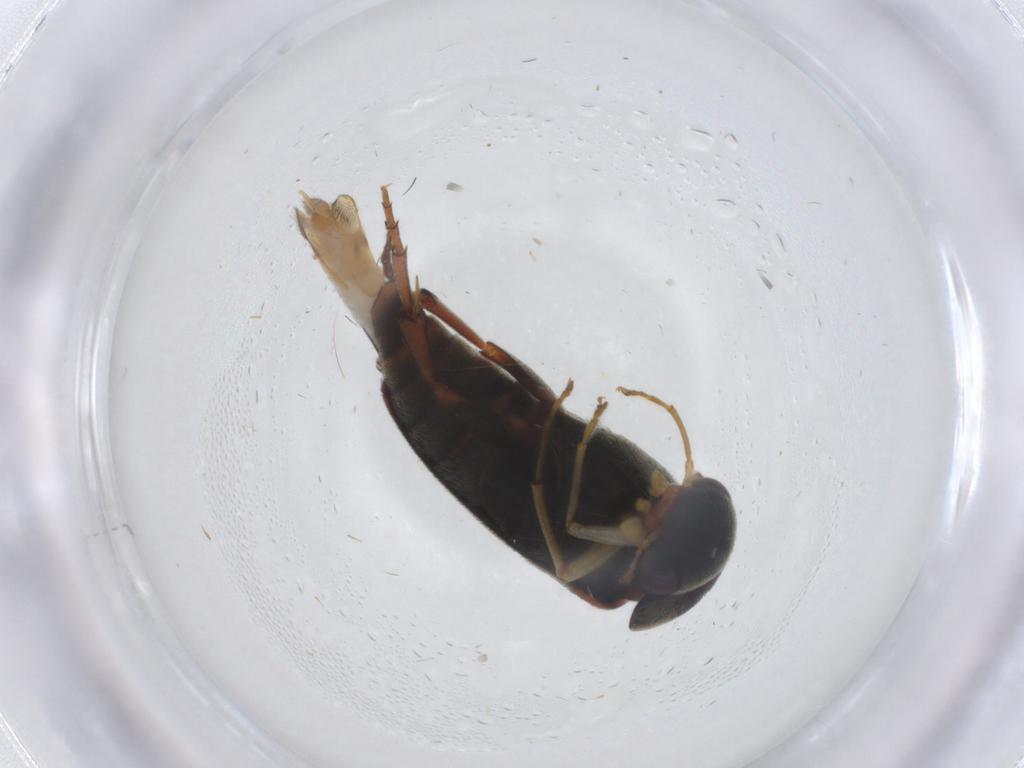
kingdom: Animalia
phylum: Arthropoda
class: Insecta
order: Coleoptera
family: Mordellidae
